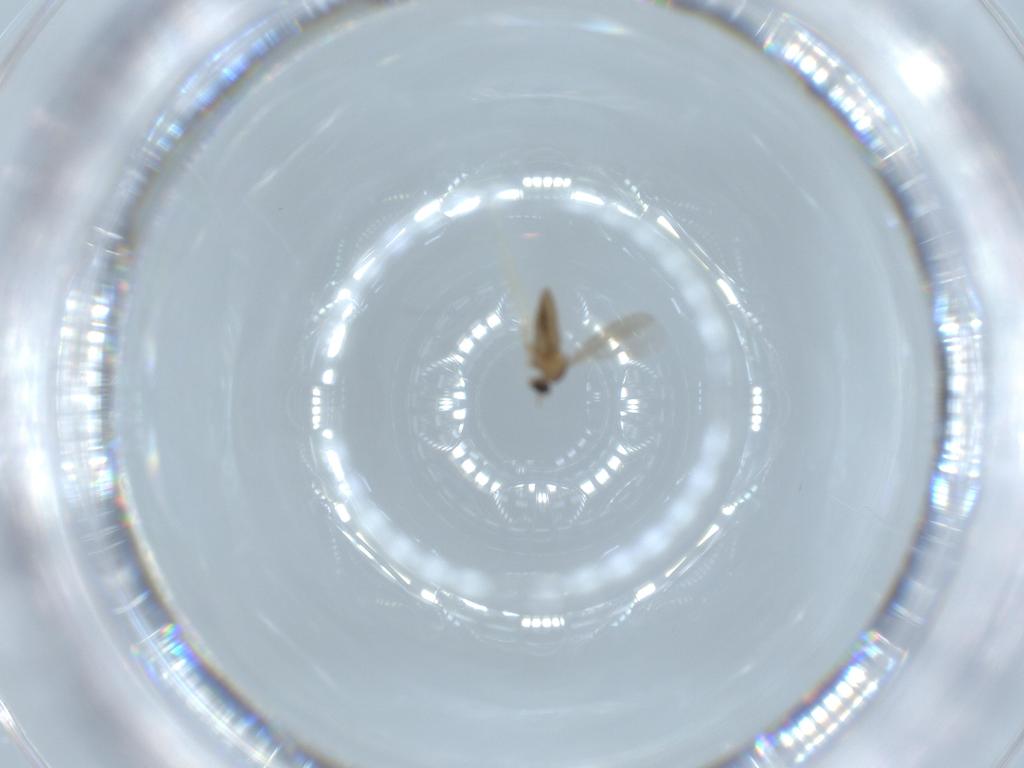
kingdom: Animalia
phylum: Arthropoda
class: Insecta
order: Diptera
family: Cecidomyiidae
